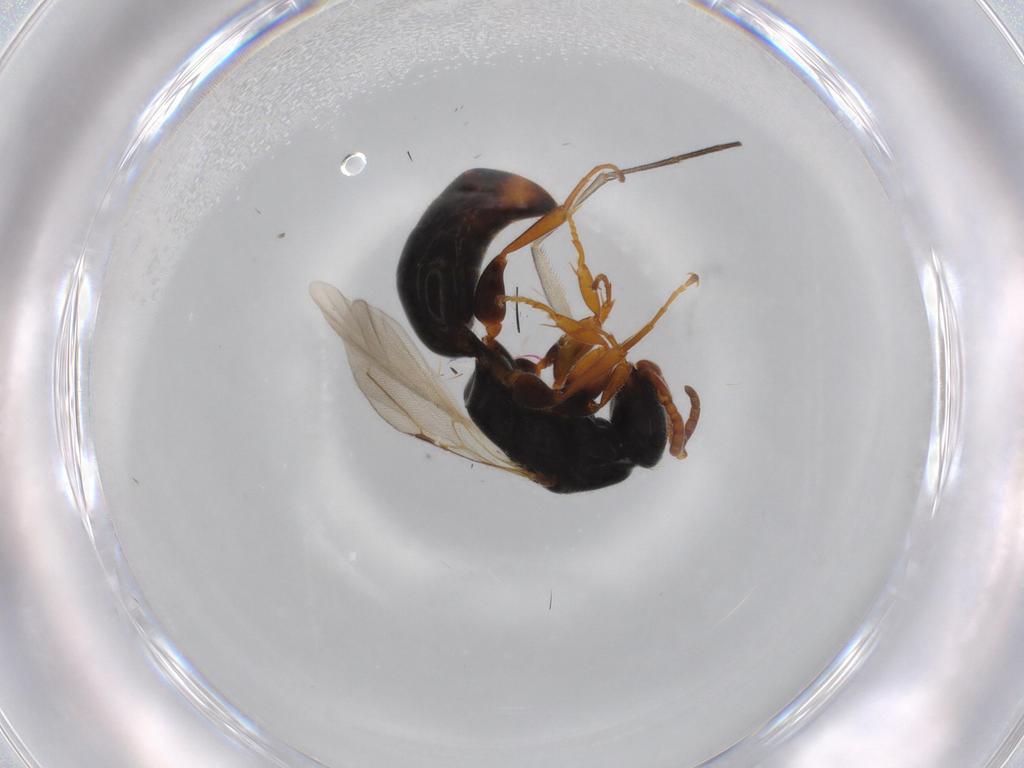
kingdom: Animalia
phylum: Arthropoda
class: Insecta
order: Hymenoptera
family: Bethylidae
